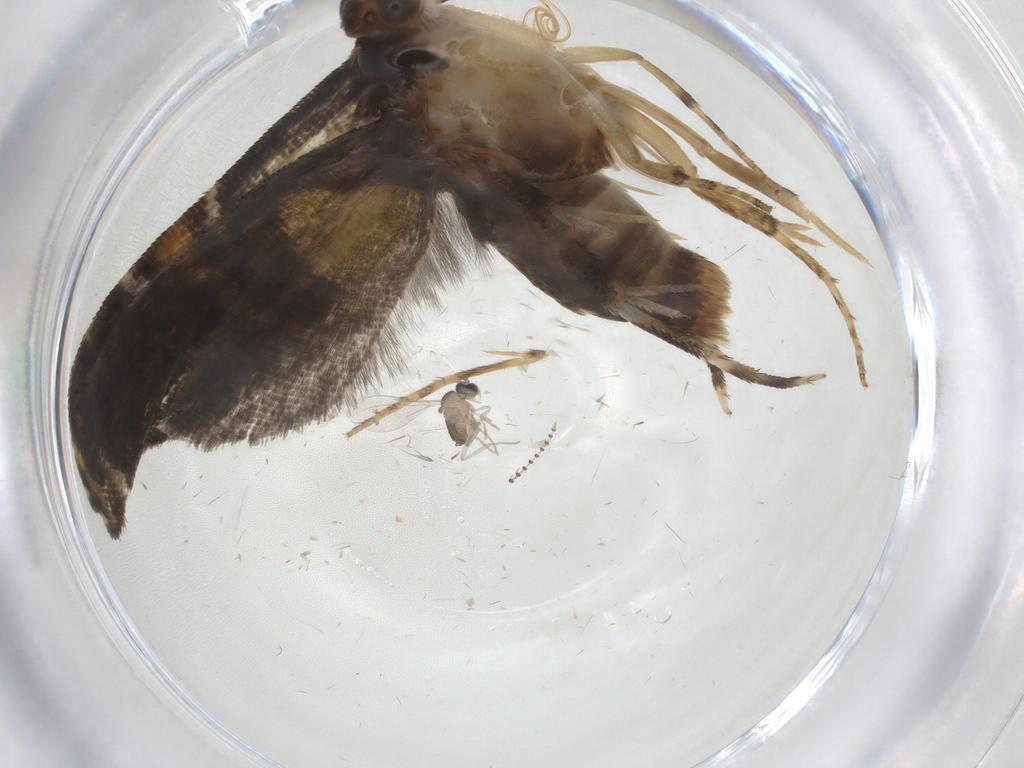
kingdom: Animalia
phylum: Arthropoda
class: Insecta
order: Lepidoptera
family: Glyphipterigidae
